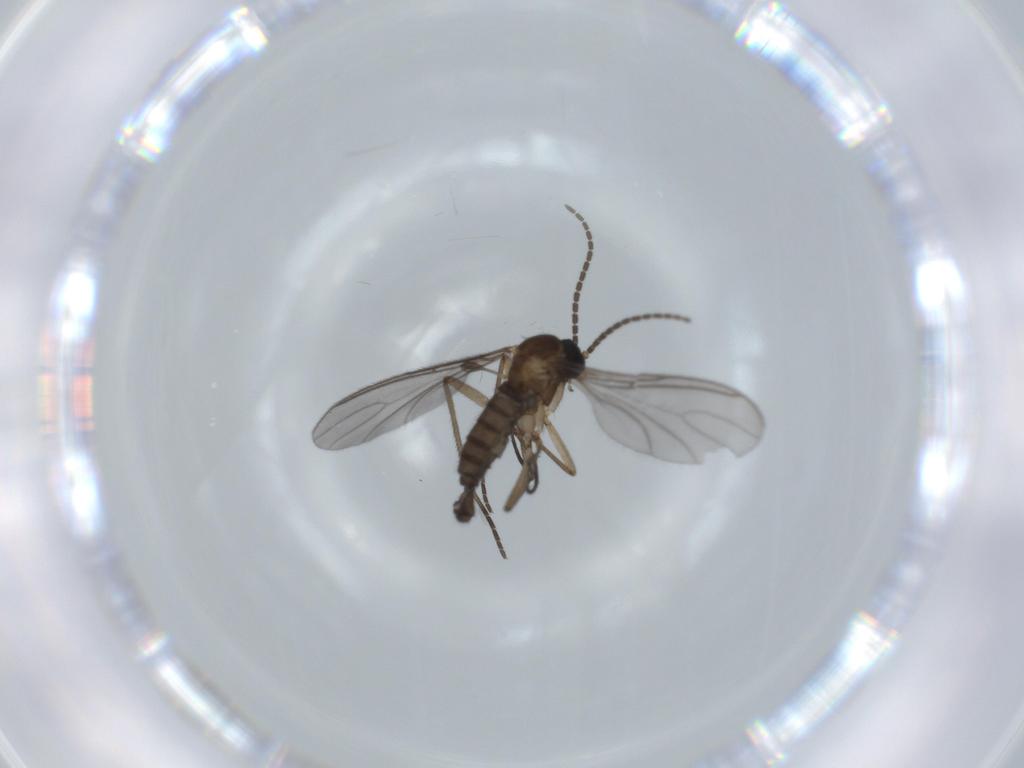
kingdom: Animalia
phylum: Arthropoda
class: Insecta
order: Diptera
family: Sciaridae
